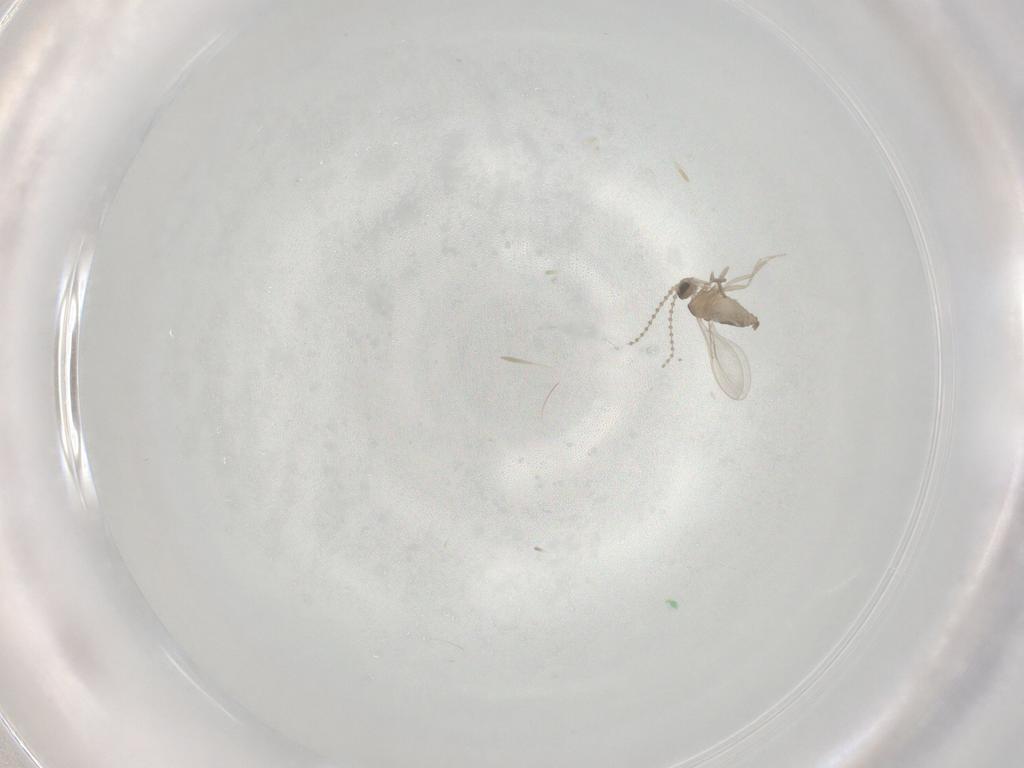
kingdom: Animalia
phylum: Arthropoda
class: Insecta
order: Diptera
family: Cecidomyiidae
